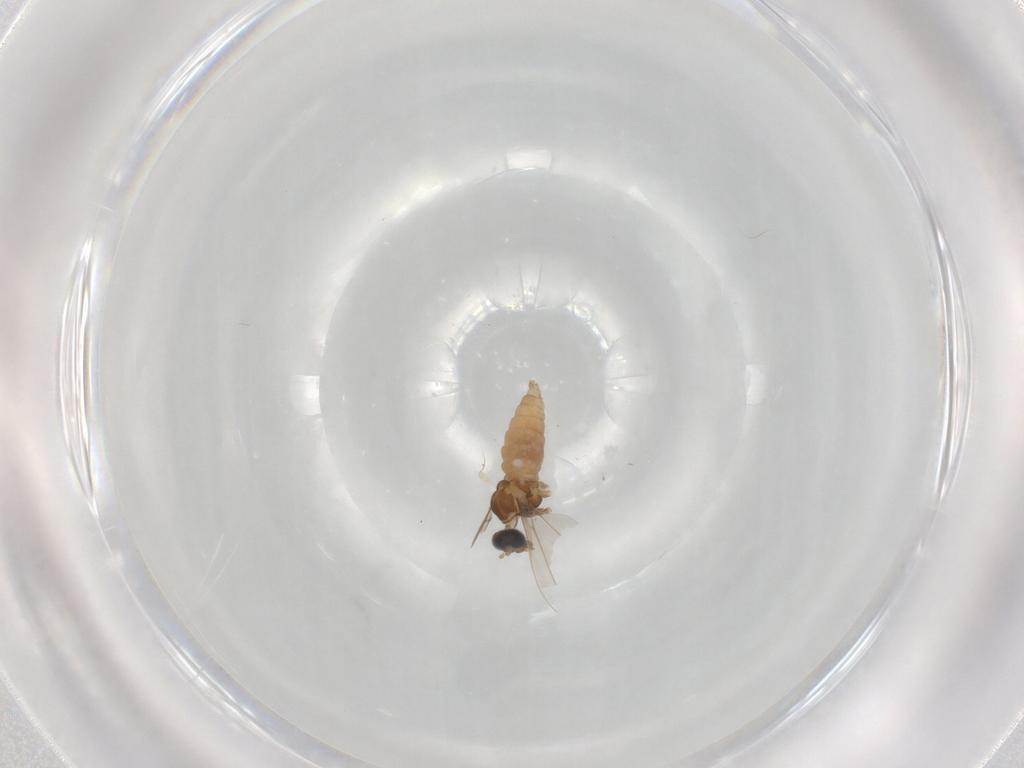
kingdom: Animalia
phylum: Arthropoda
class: Insecta
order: Diptera
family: Cecidomyiidae
